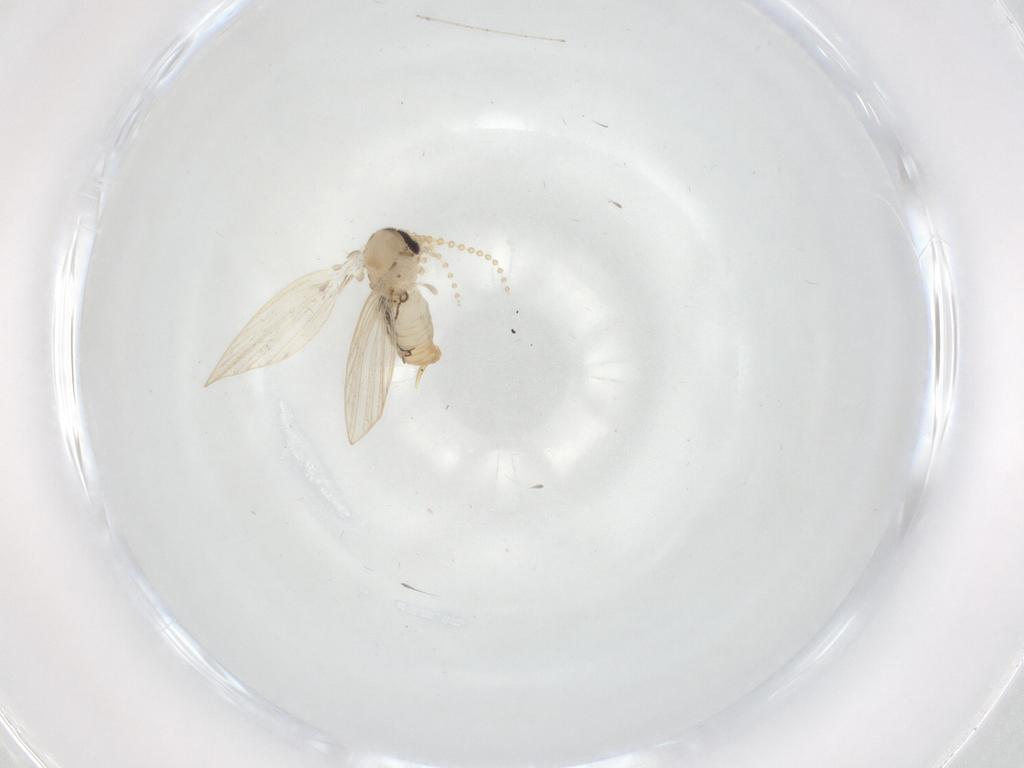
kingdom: Animalia
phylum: Arthropoda
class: Insecta
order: Diptera
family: Psychodidae
